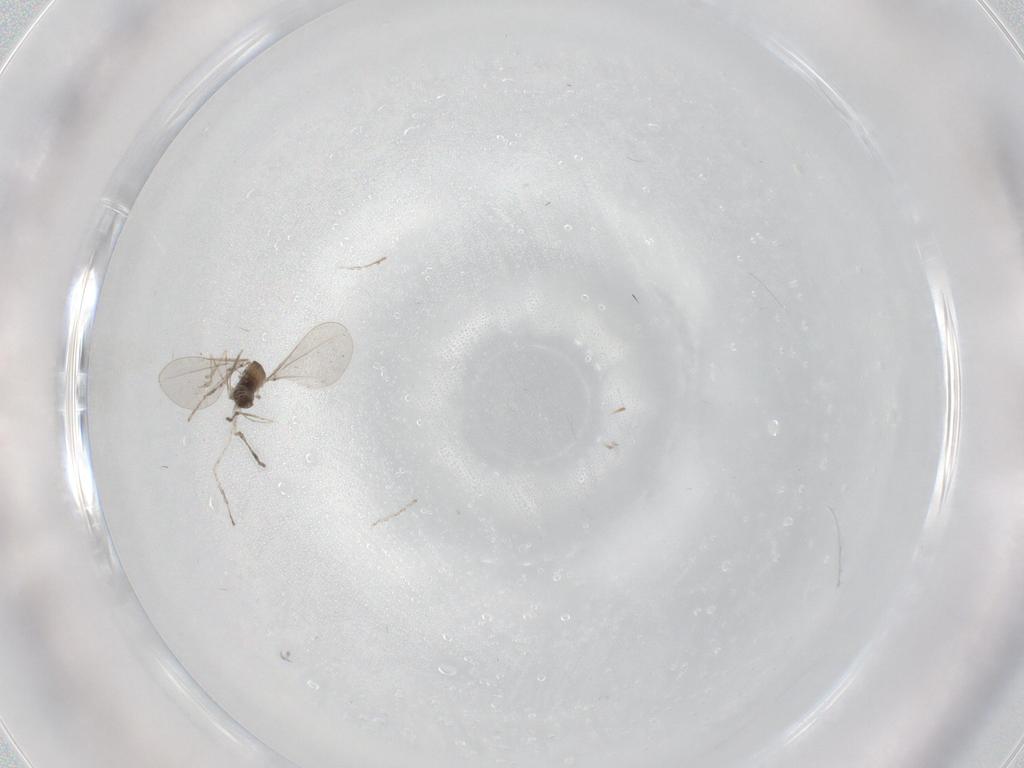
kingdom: Animalia
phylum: Arthropoda
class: Insecta
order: Diptera
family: Cecidomyiidae
